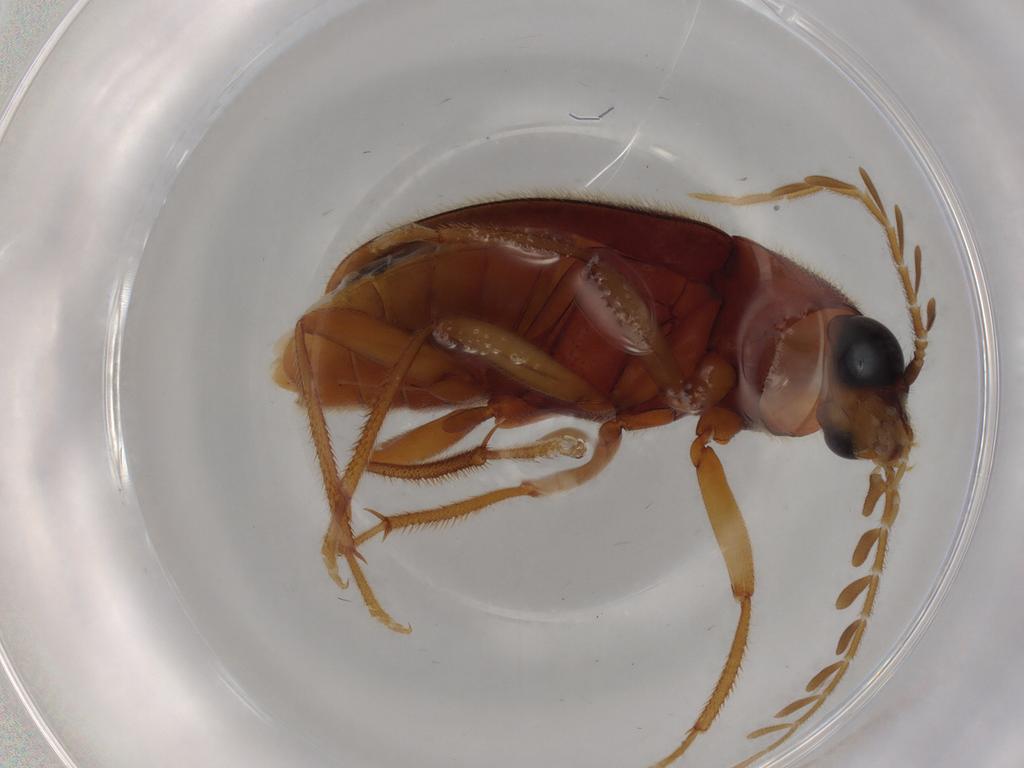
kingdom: Animalia
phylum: Arthropoda
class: Insecta
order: Coleoptera
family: Ptilodactylidae
